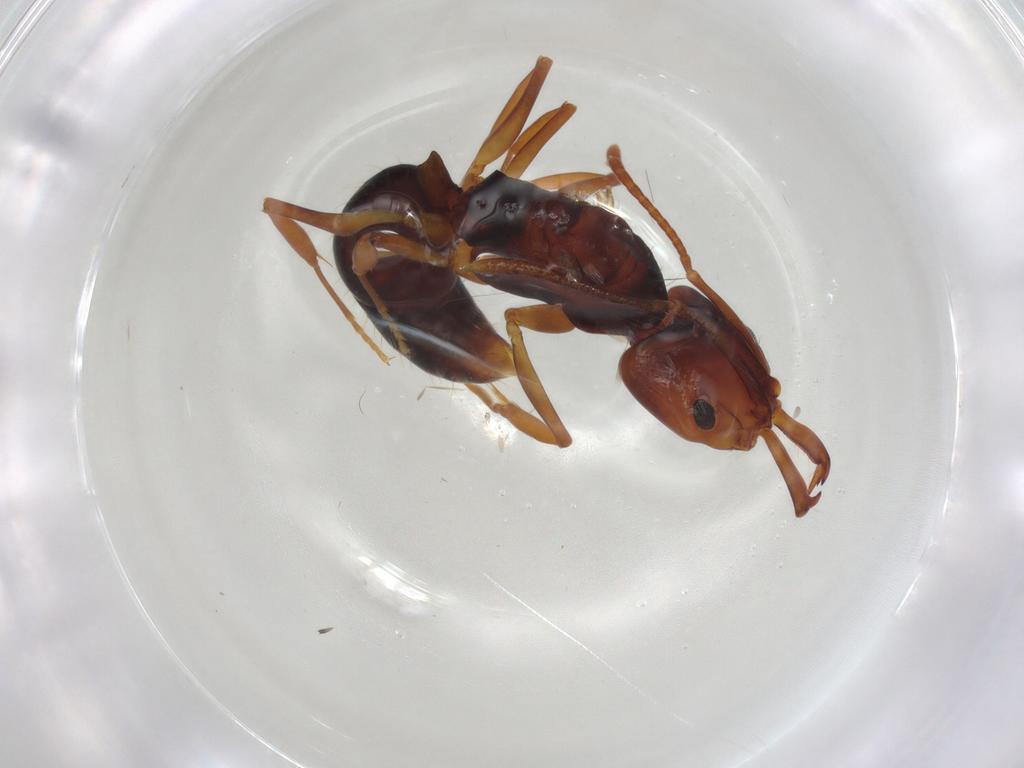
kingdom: Animalia
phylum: Arthropoda
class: Insecta
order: Hymenoptera
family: Formicidae
